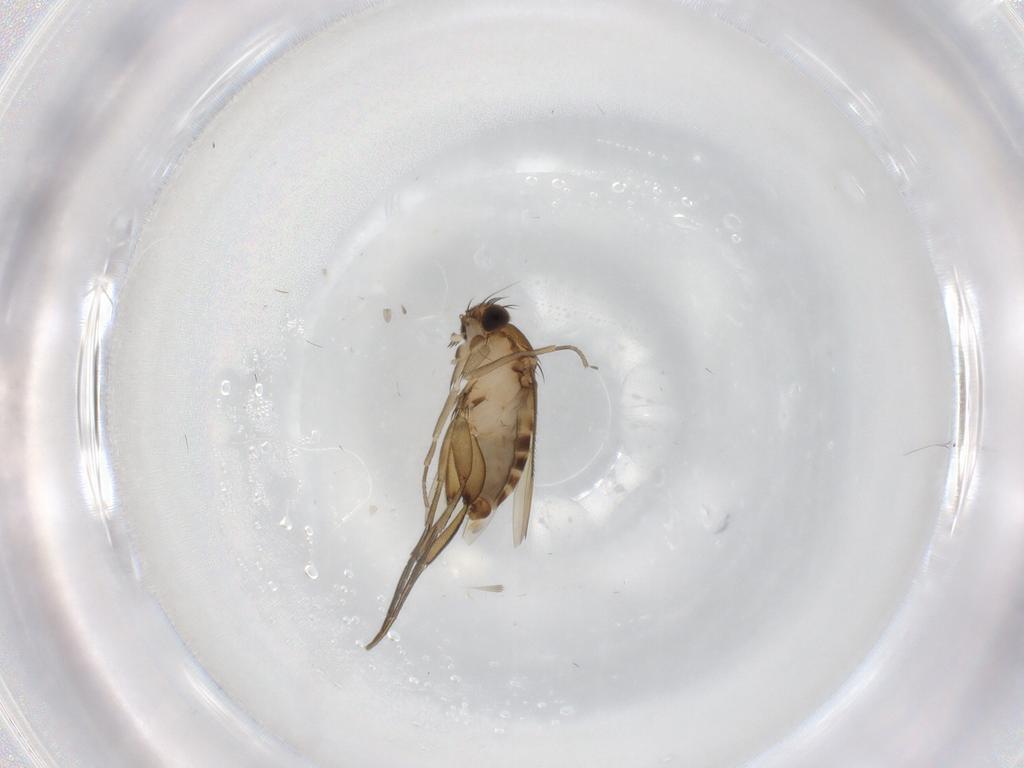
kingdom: Animalia
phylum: Arthropoda
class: Insecta
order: Diptera
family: Phoridae
